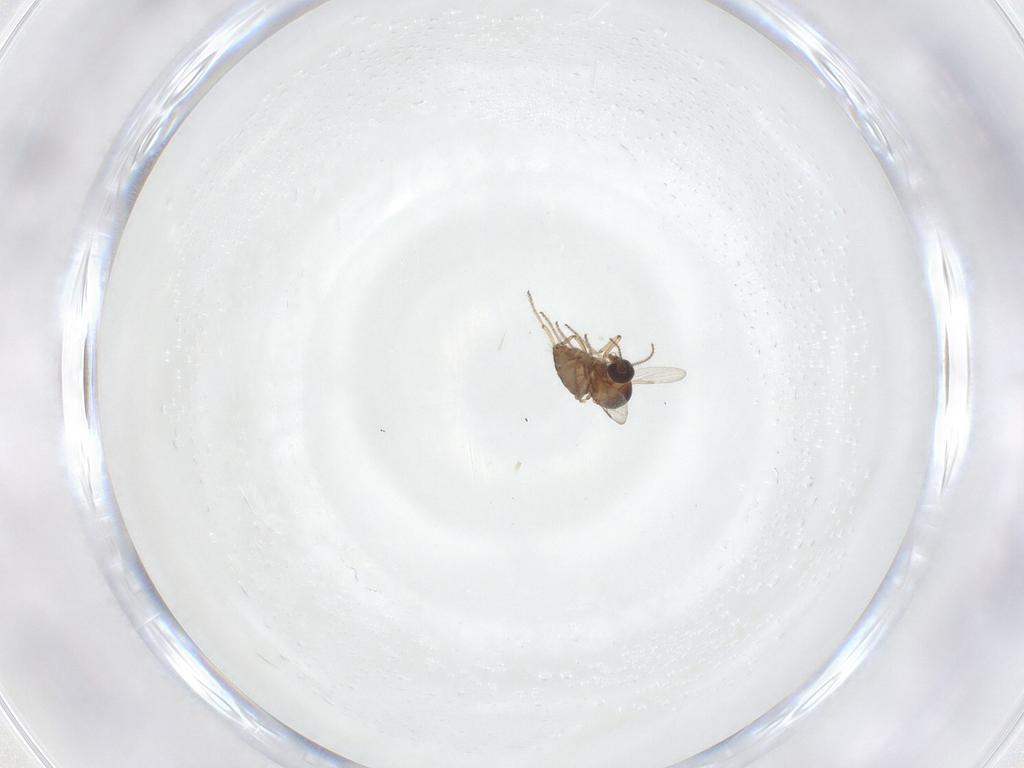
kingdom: Animalia
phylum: Arthropoda
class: Insecta
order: Diptera
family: Ceratopogonidae
